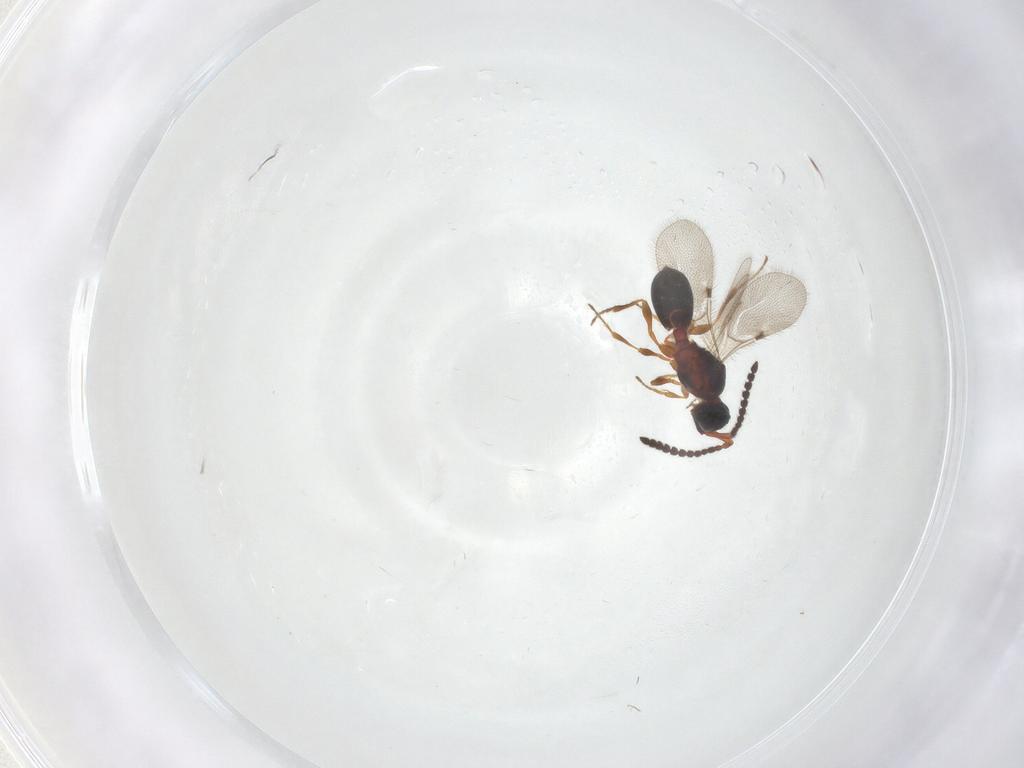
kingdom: Animalia
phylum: Arthropoda
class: Insecta
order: Hymenoptera
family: Diapriidae
